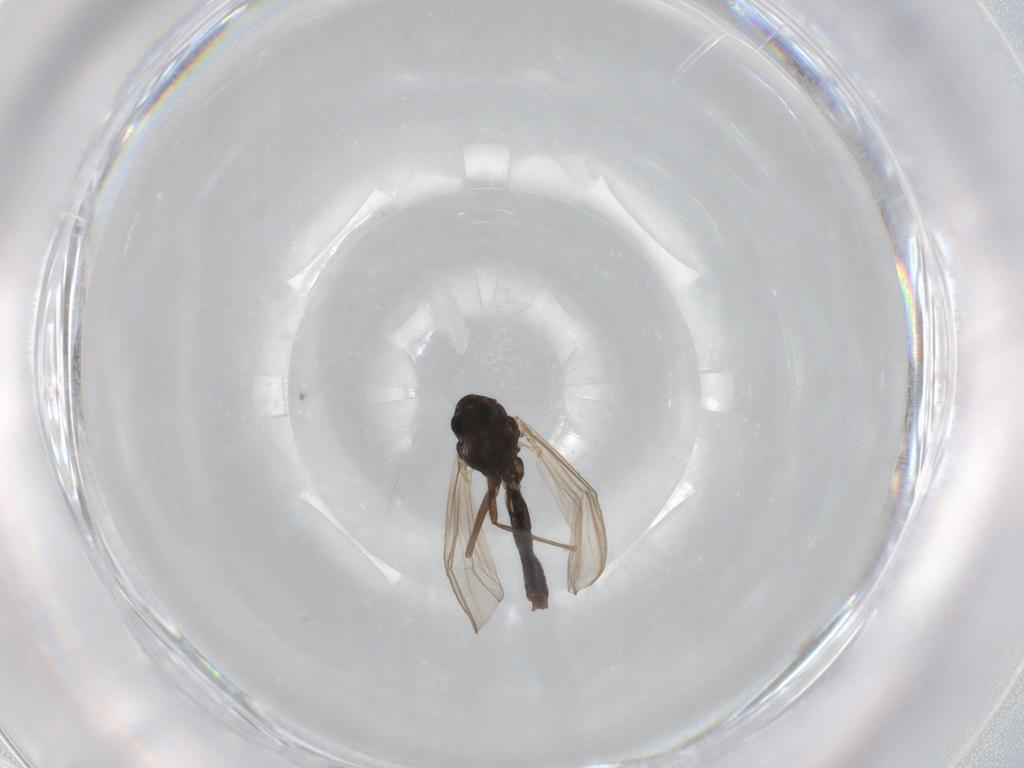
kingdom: Animalia
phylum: Arthropoda
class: Insecta
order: Diptera
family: Chironomidae
